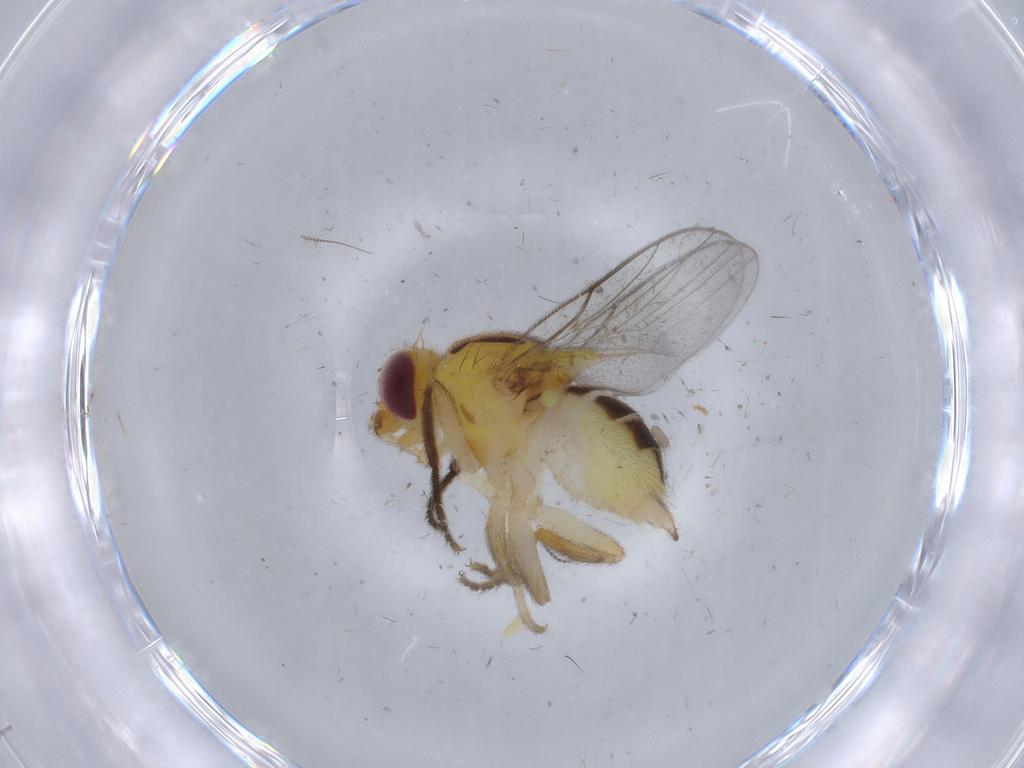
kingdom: Animalia
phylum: Arthropoda
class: Insecta
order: Diptera
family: Chloropidae
